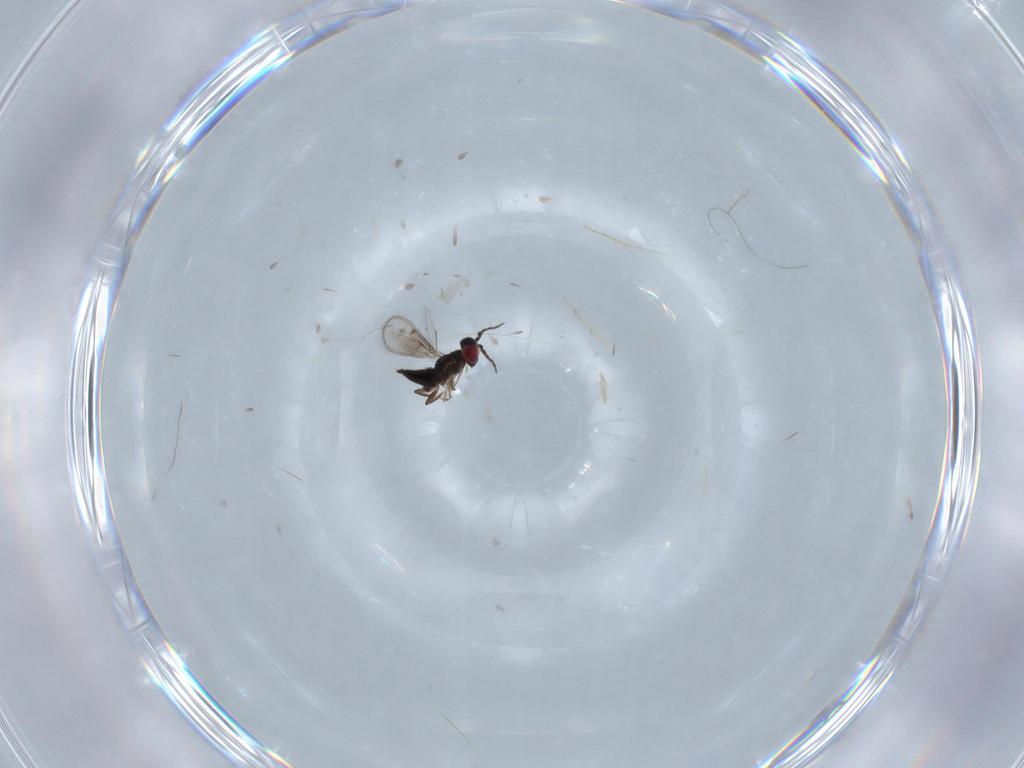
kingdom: Animalia
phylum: Arthropoda
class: Insecta
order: Hymenoptera
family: Eulophidae
